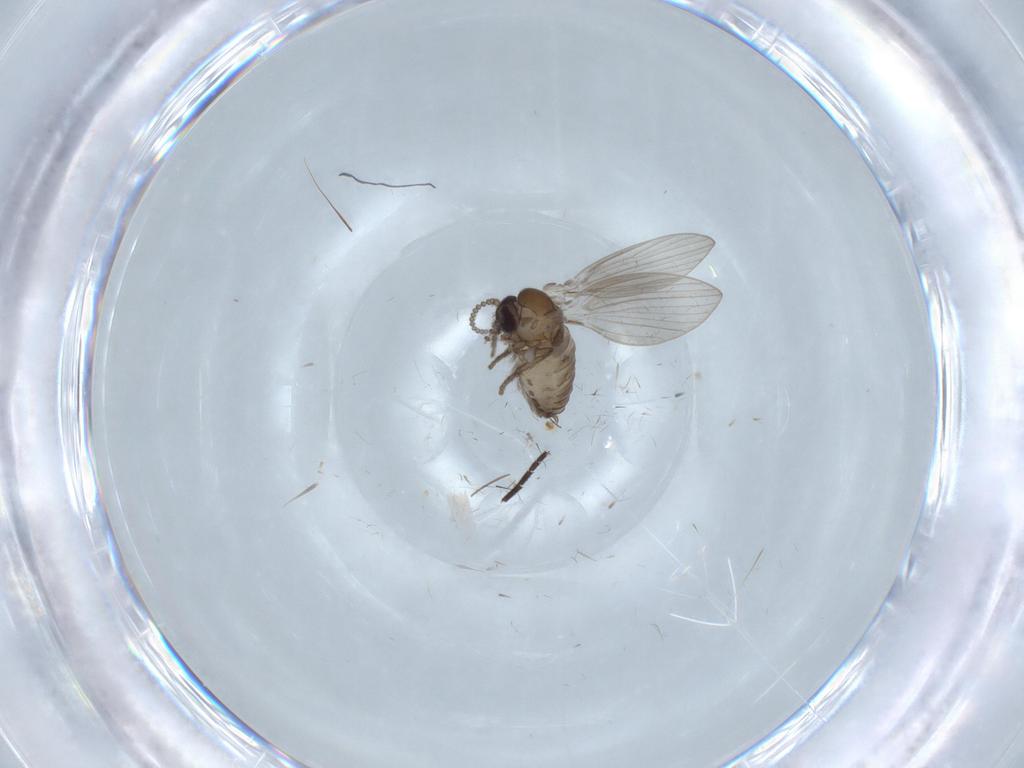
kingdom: Animalia
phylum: Arthropoda
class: Insecta
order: Diptera
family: Psychodidae
